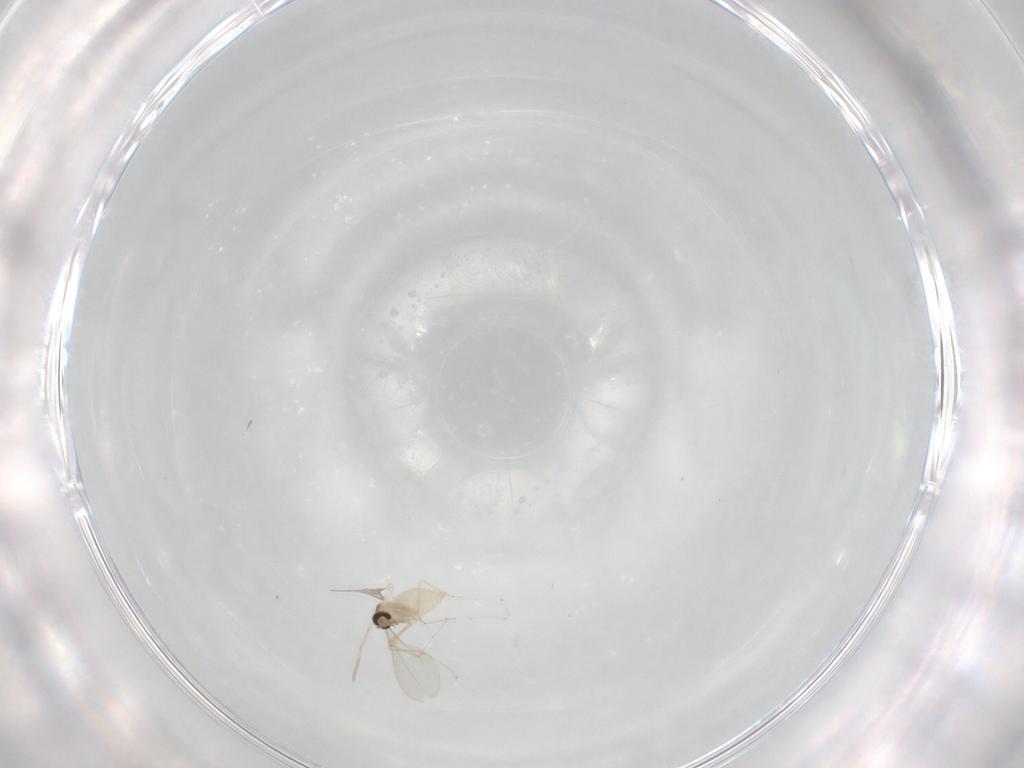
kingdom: Animalia
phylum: Arthropoda
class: Insecta
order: Diptera
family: Cecidomyiidae
